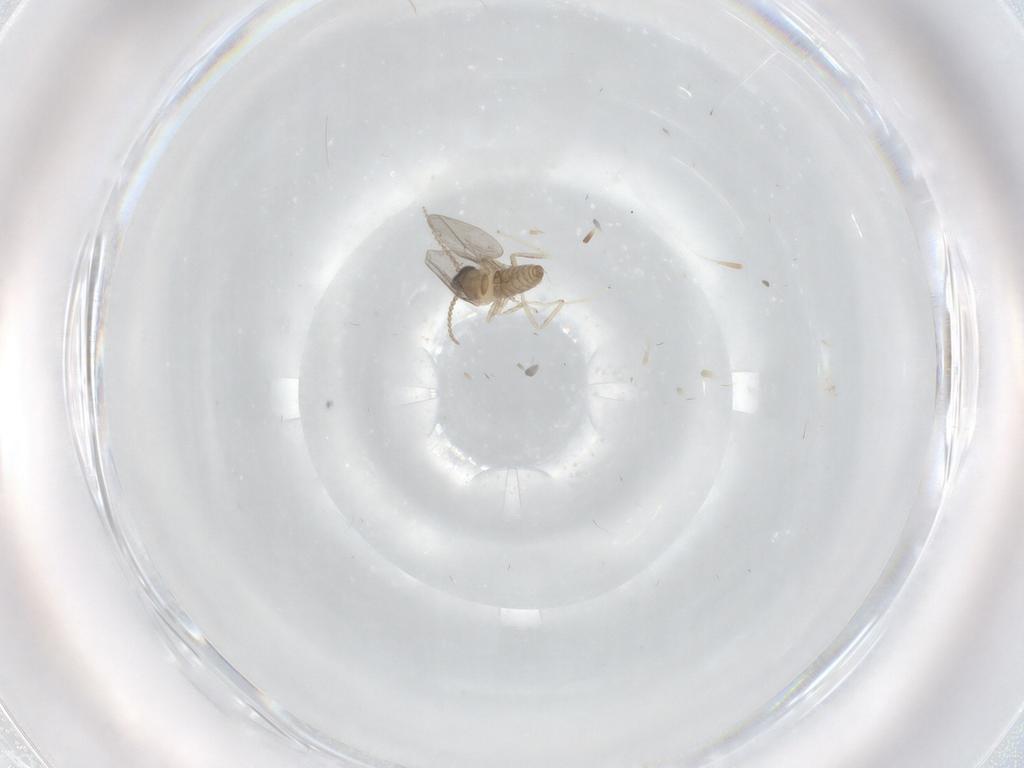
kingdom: Animalia
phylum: Arthropoda
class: Insecta
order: Diptera
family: Cecidomyiidae
